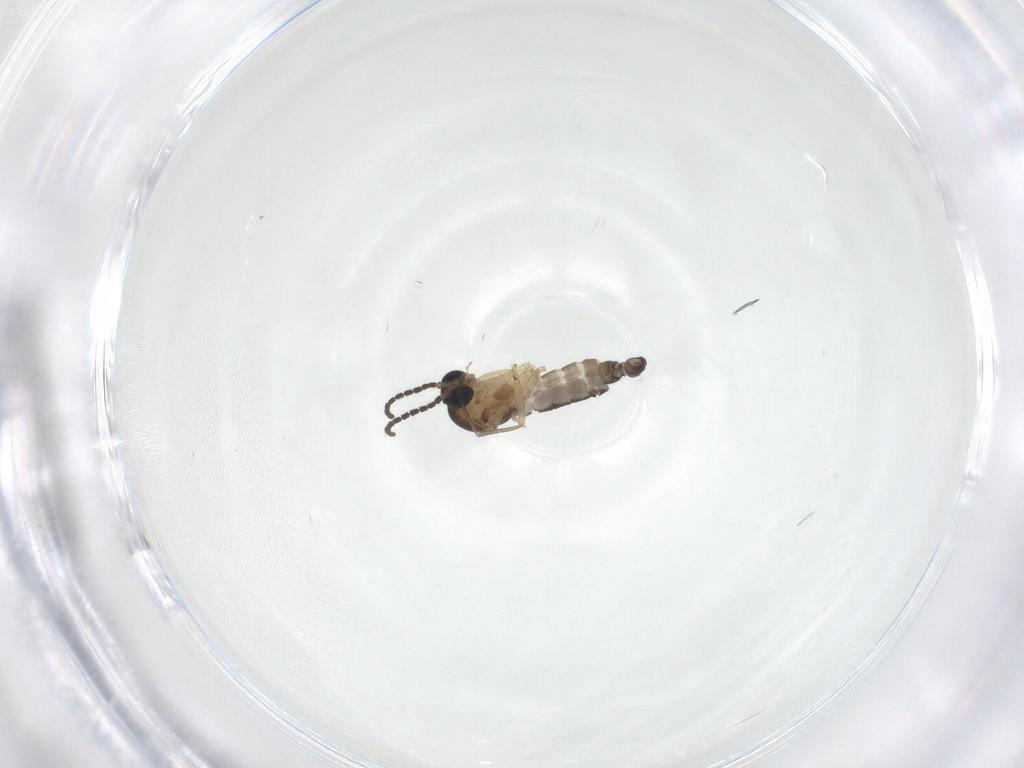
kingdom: Animalia
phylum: Arthropoda
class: Insecta
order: Diptera
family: Sciaridae
